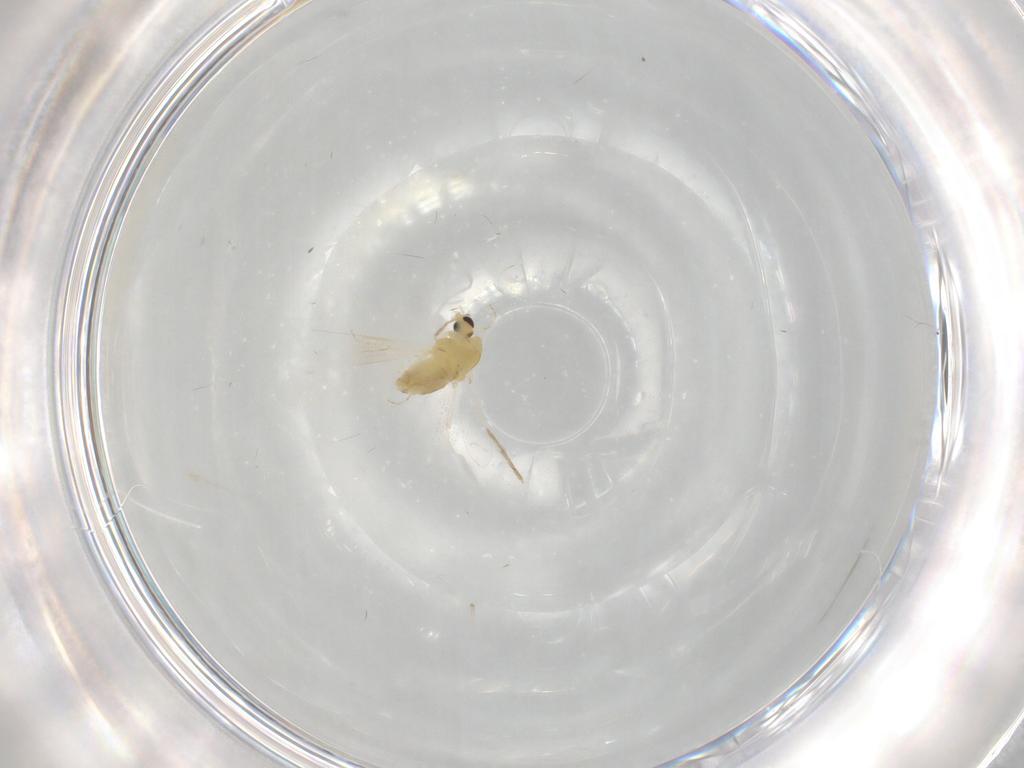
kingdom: Animalia
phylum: Arthropoda
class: Insecta
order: Diptera
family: Chironomidae
